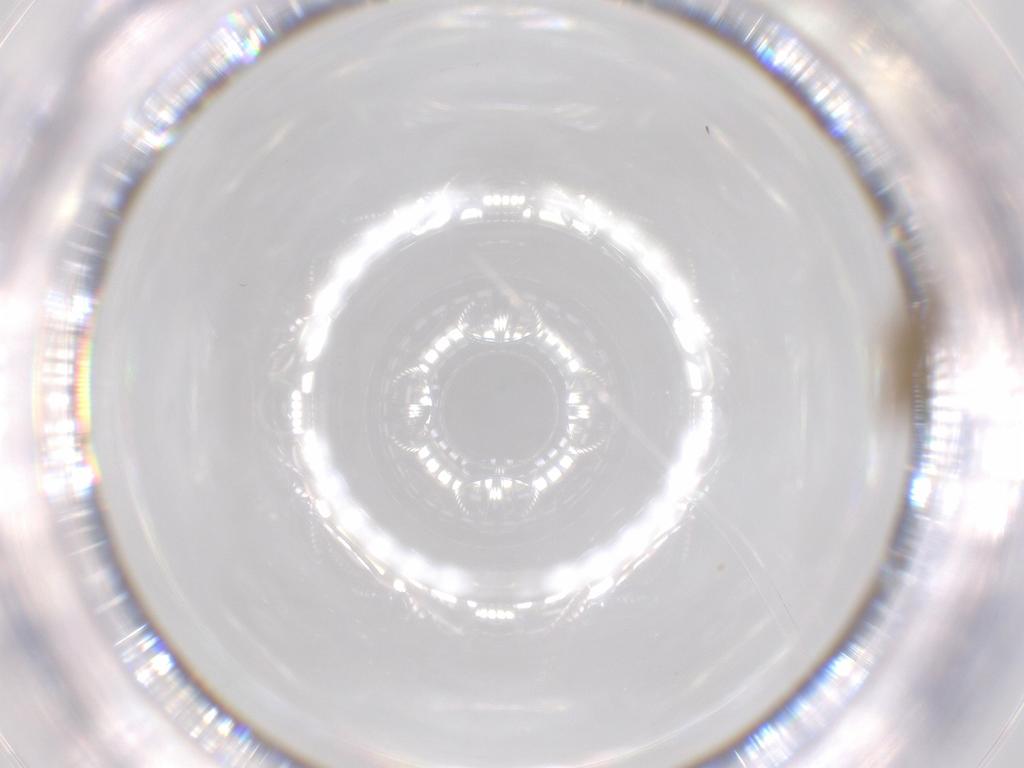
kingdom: Animalia
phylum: Arthropoda
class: Insecta
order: Diptera
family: Chironomidae
